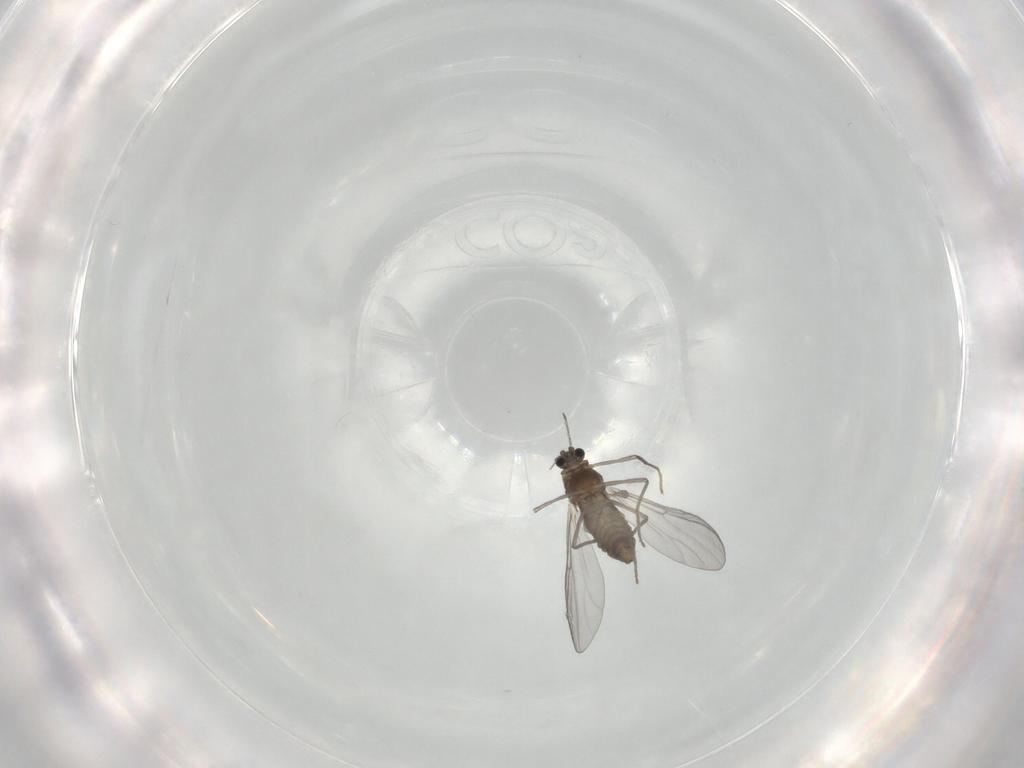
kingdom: Animalia
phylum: Arthropoda
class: Insecta
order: Diptera
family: Chironomidae
